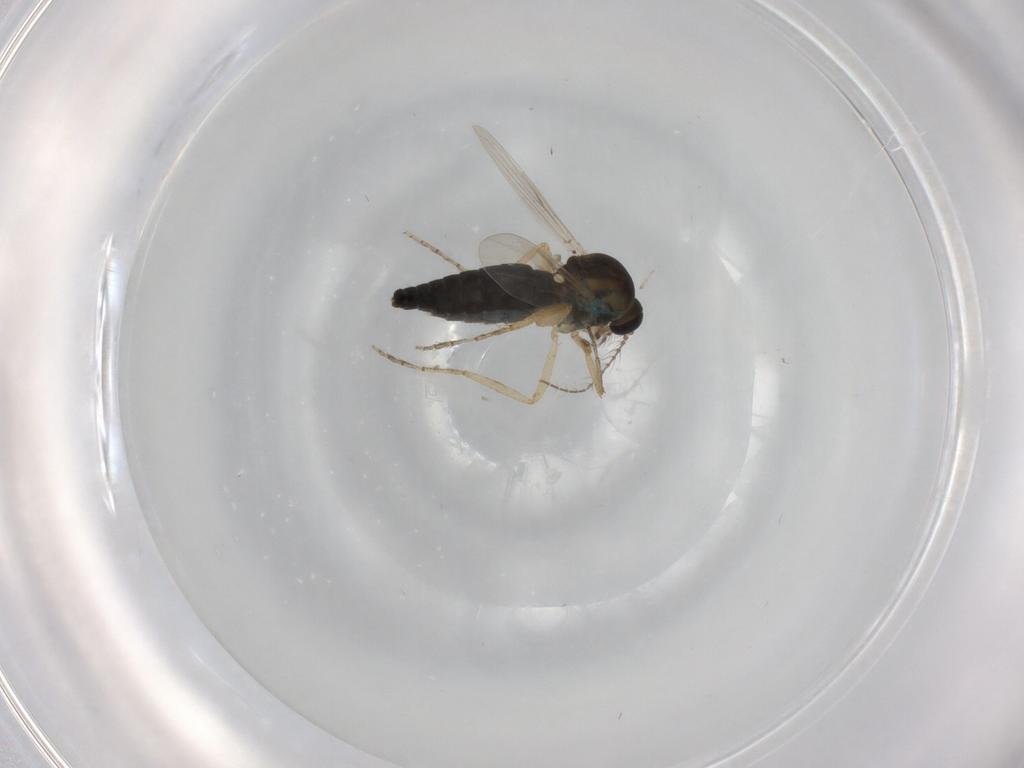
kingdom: Animalia
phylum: Arthropoda
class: Insecta
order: Diptera
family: Ceratopogonidae
